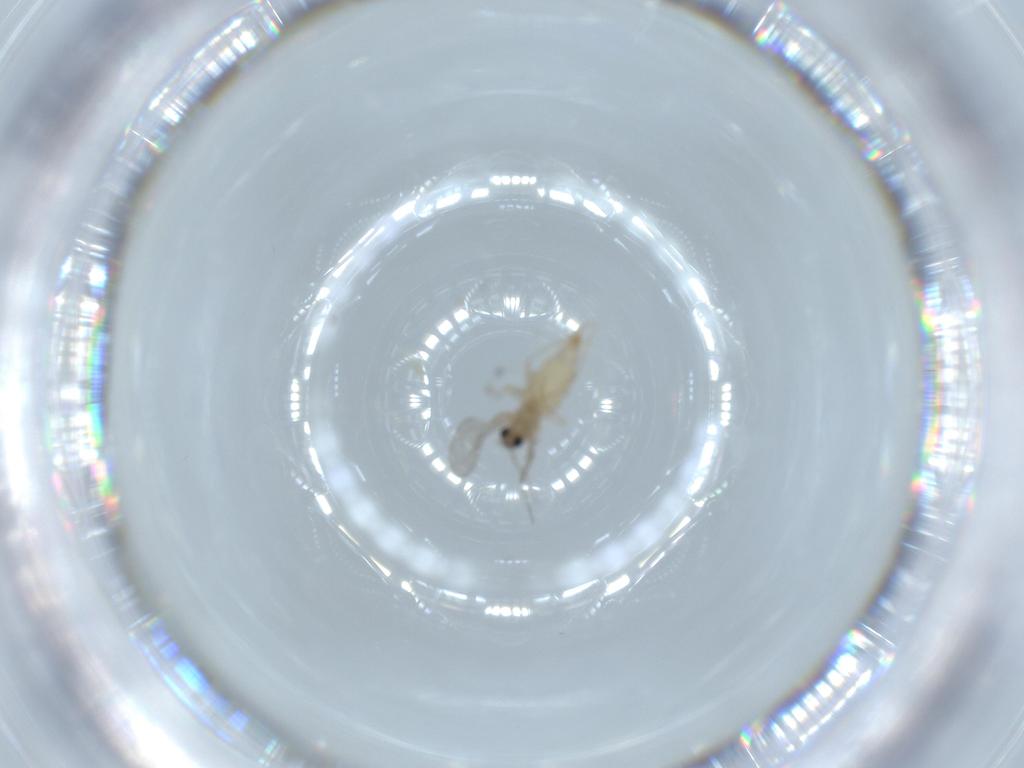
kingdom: Animalia
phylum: Arthropoda
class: Insecta
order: Diptera
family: Cecidomyiidae
